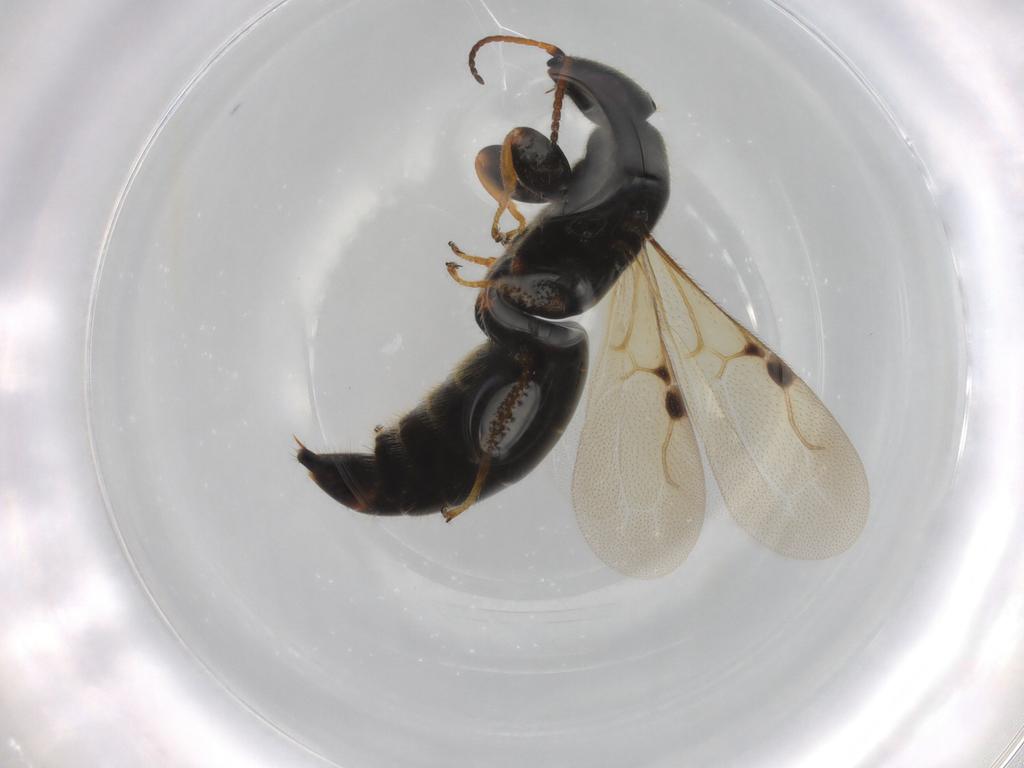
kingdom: Animalia
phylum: Arthropoda
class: Insecta
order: Hymenoptera
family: Bethylidae
